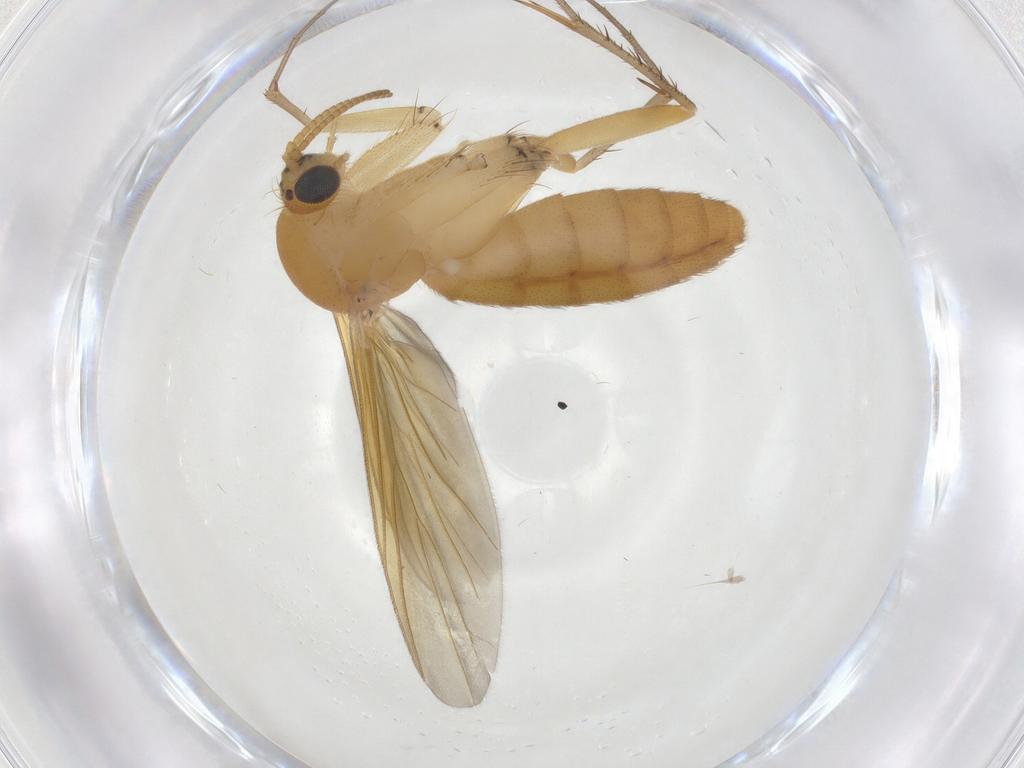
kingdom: Animalia
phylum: Arthropoda
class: Insecta
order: Diptera
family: Mycetophilidae
